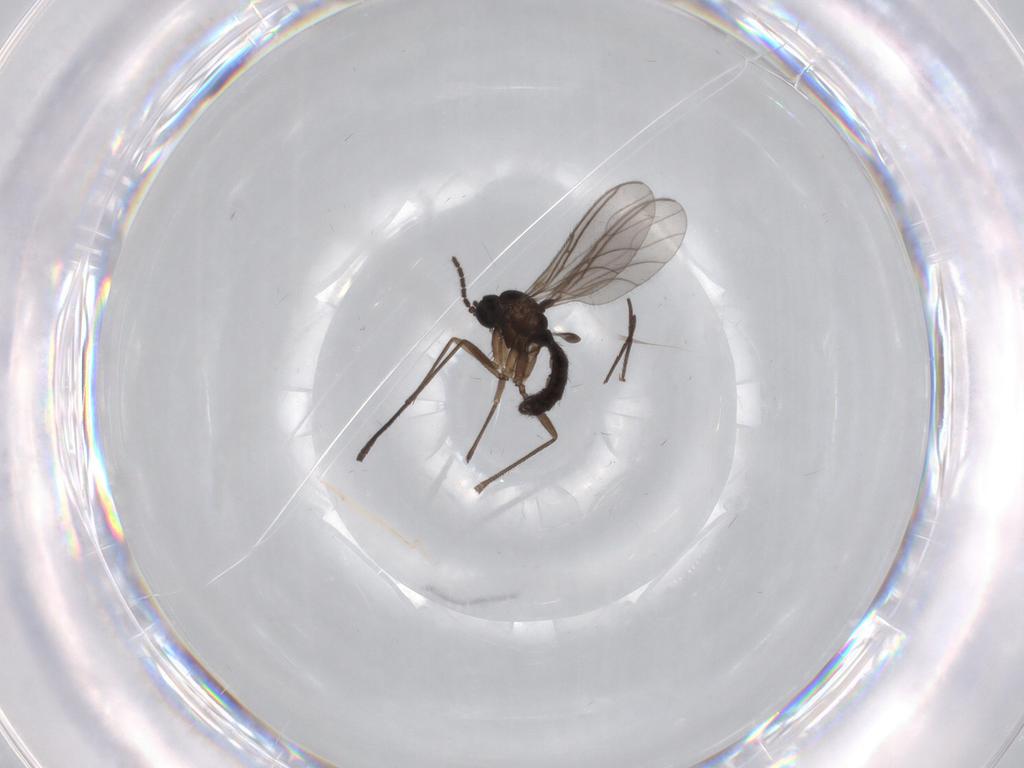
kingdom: Animalia
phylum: Arthropoda
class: Insecta
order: Diptera
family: Sciaridae
